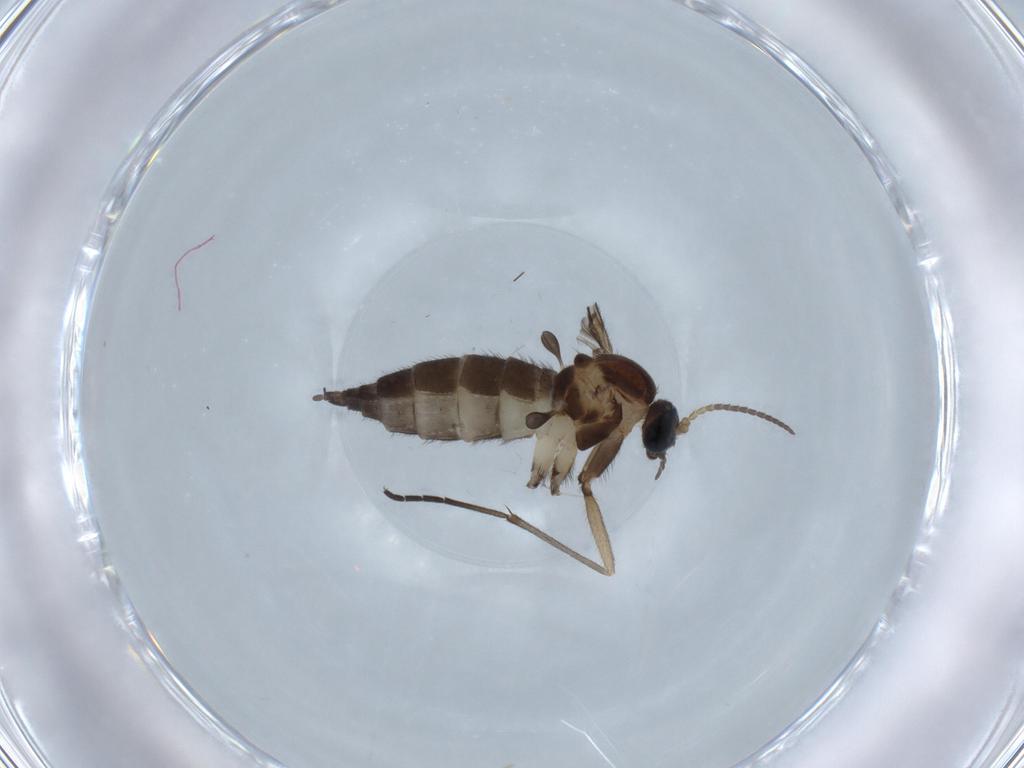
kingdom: Animalia
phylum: Arthropoda
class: Insecta
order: Diptera
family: Sciaridae
